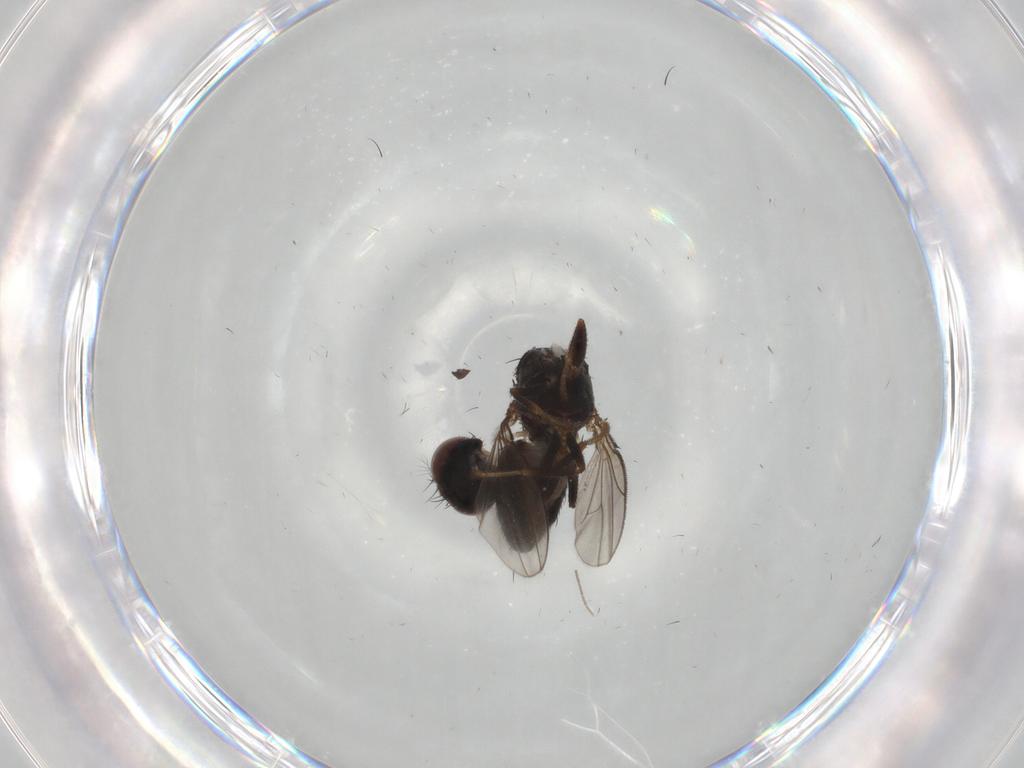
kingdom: Animalia
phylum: Arthropoda
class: Insecta
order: Diptera
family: Ephydridae
